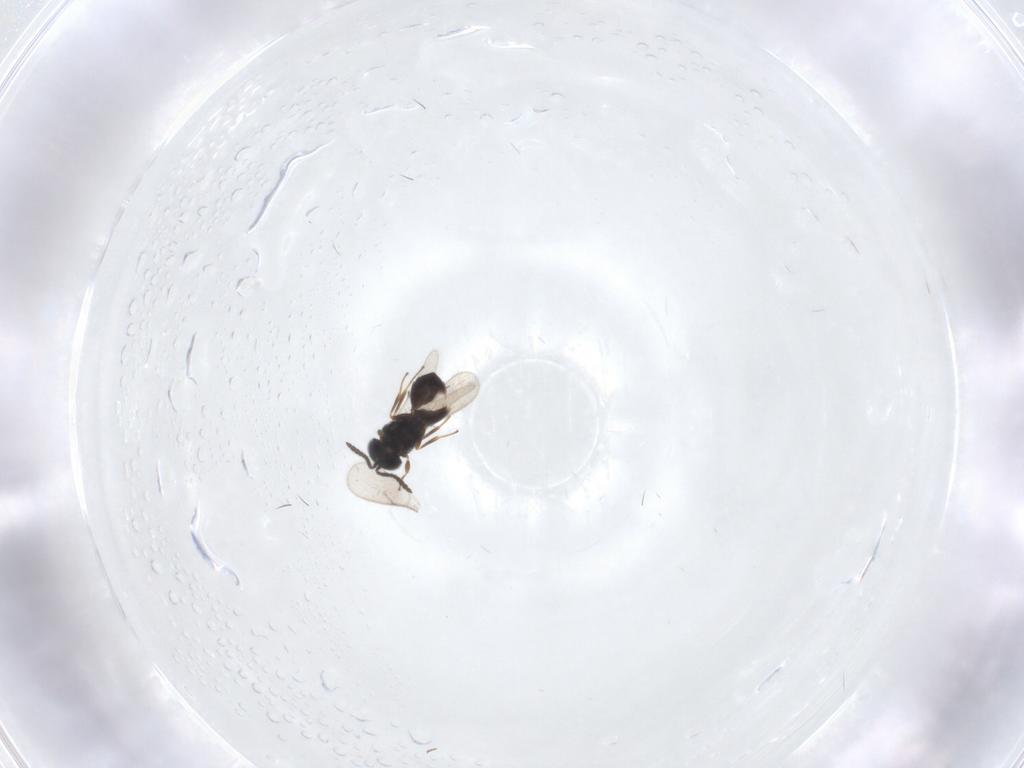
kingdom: Animalia
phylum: Arthropoda
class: Insecta
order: Hymenoptera
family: Scelionidae
